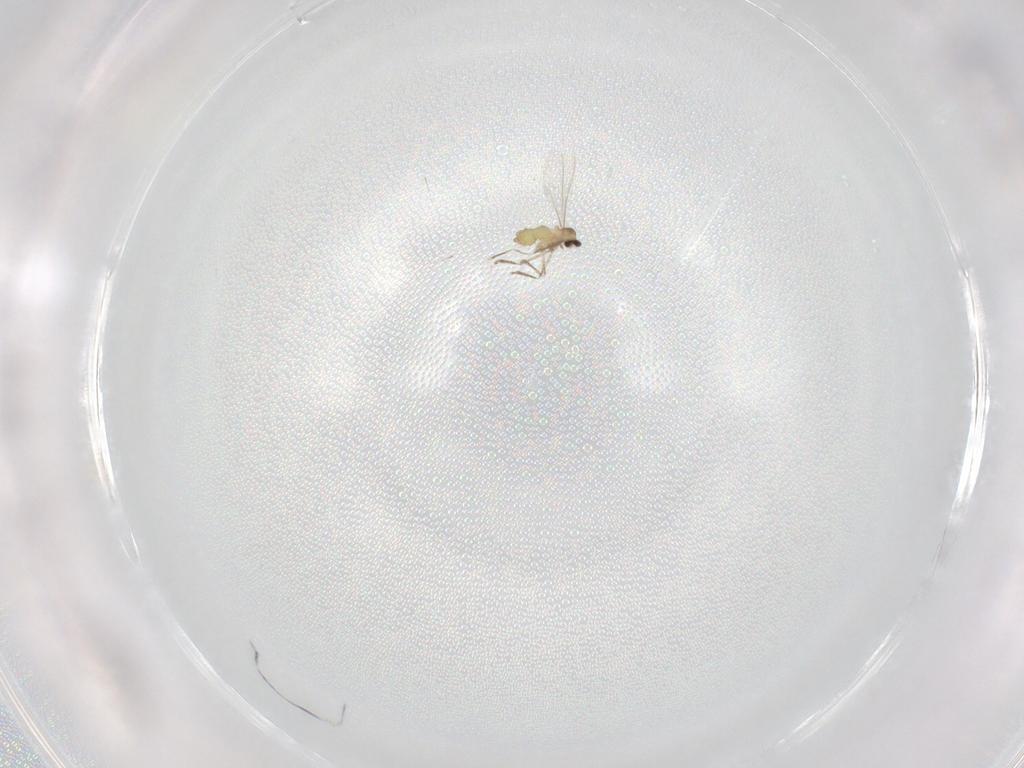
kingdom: Animalia
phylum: Arthropoda
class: Insecta
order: Diptera
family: Cecidomyiidae
